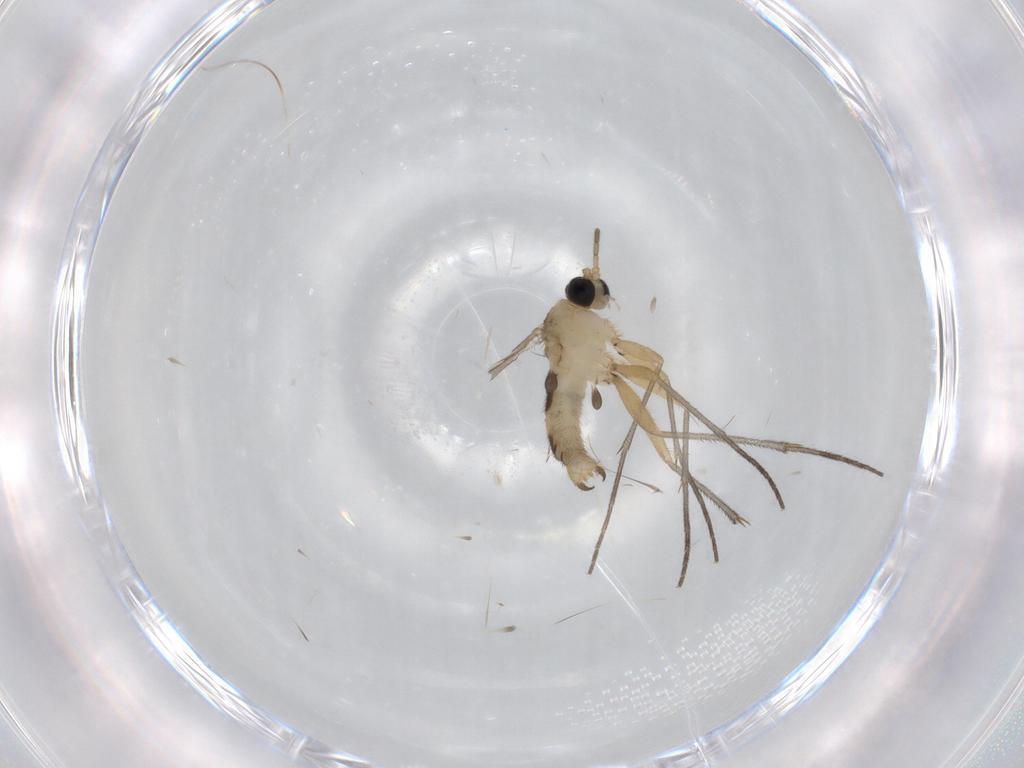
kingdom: Animalia
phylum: Arthropoda
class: Insecta
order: Diptera
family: Sciaridae
